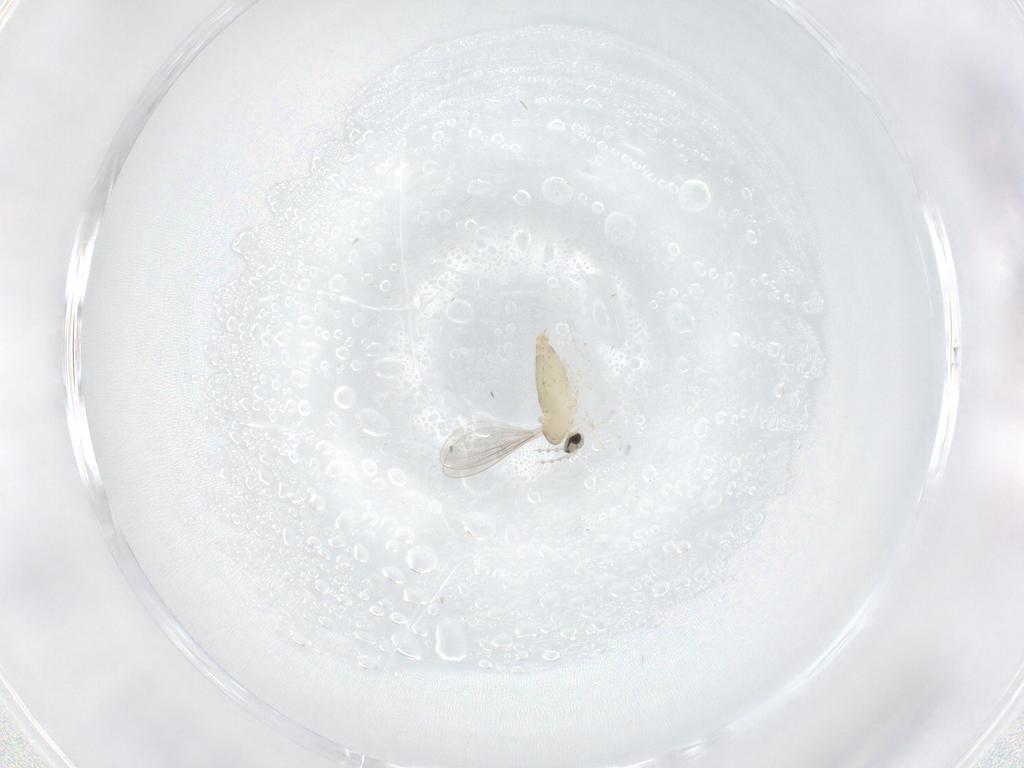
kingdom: Animalia
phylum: Arthropoda
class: Insecta
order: Diptera
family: Cecidomyiidae
